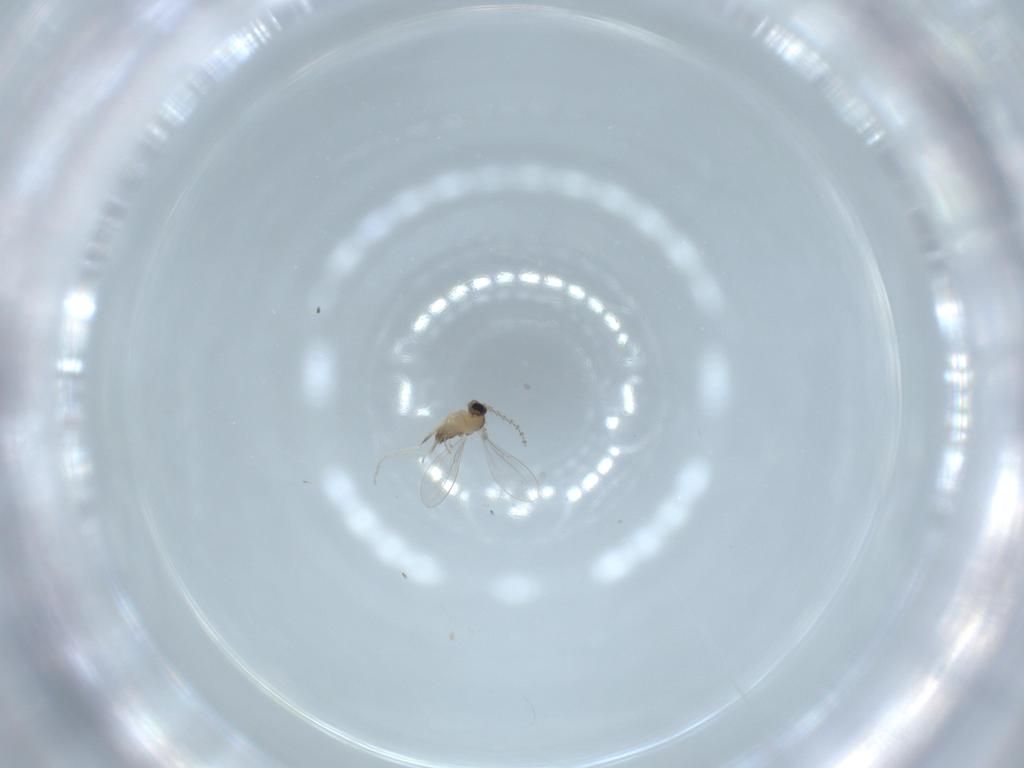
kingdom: Animalia
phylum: Arthropoda
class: Insecta
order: Diptera
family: Cecidomyiidae
